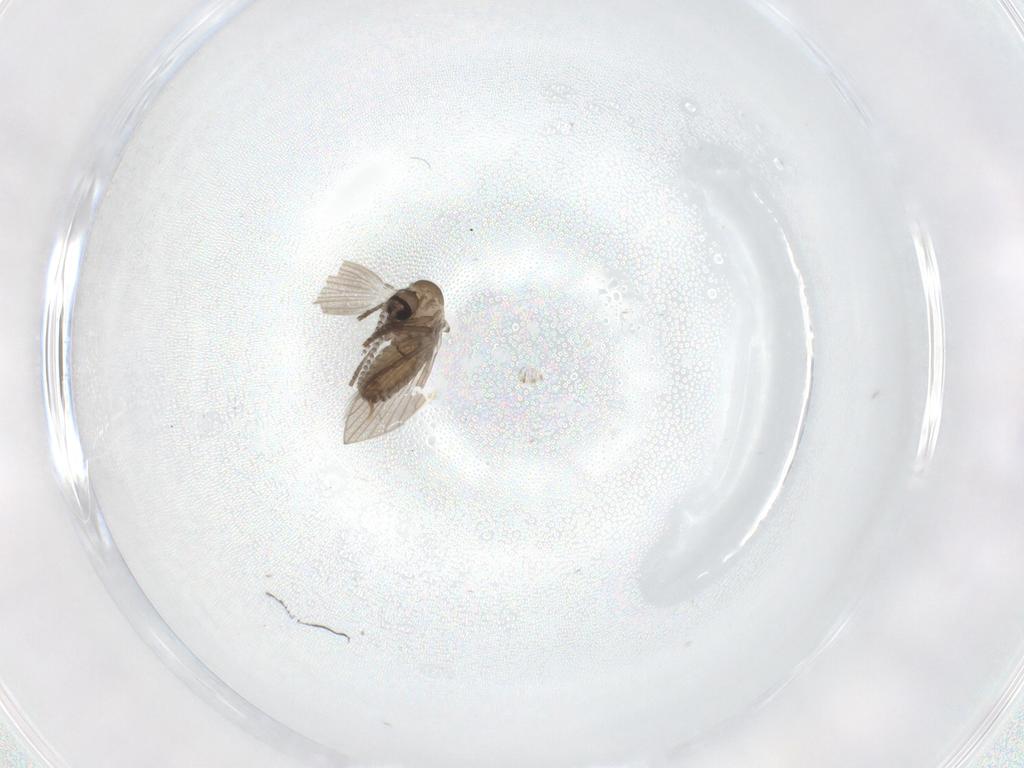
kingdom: Animalia
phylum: Arthropoda
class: Insecta
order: Diptera
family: Psychodidae
